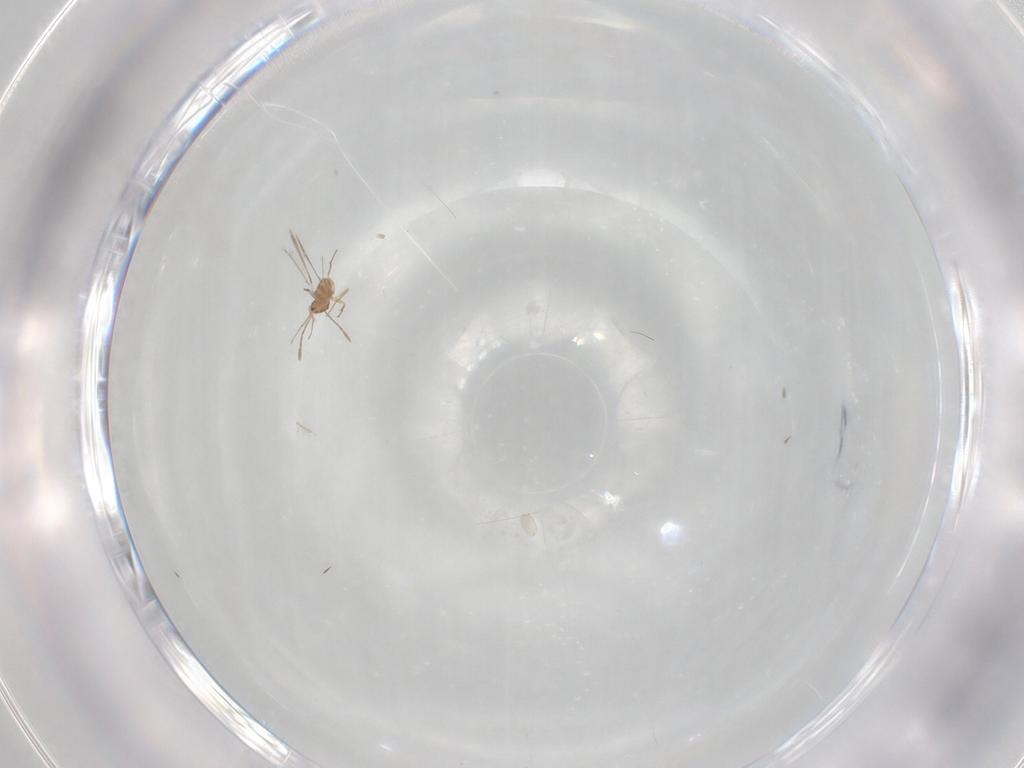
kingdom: Animalia
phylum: Arthropoda
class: Insecta
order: Hymenoptera
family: Mymaridae
